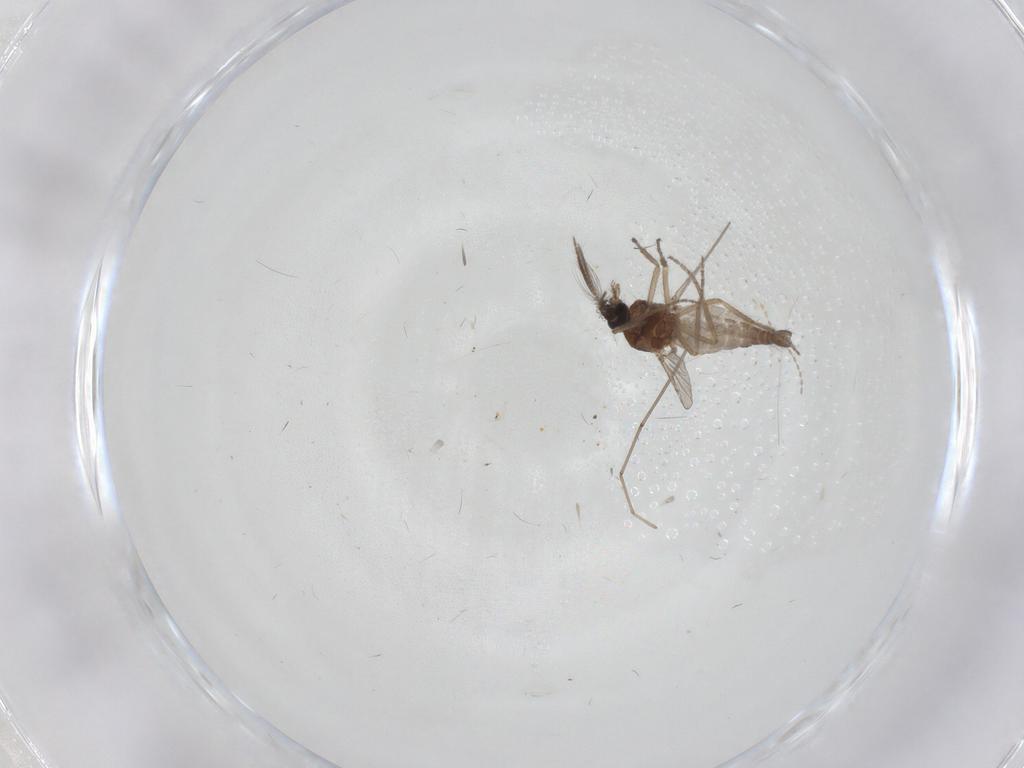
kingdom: Animalia
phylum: Arthropoda
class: Insecta
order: Diptera
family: Cecidomyiidae
